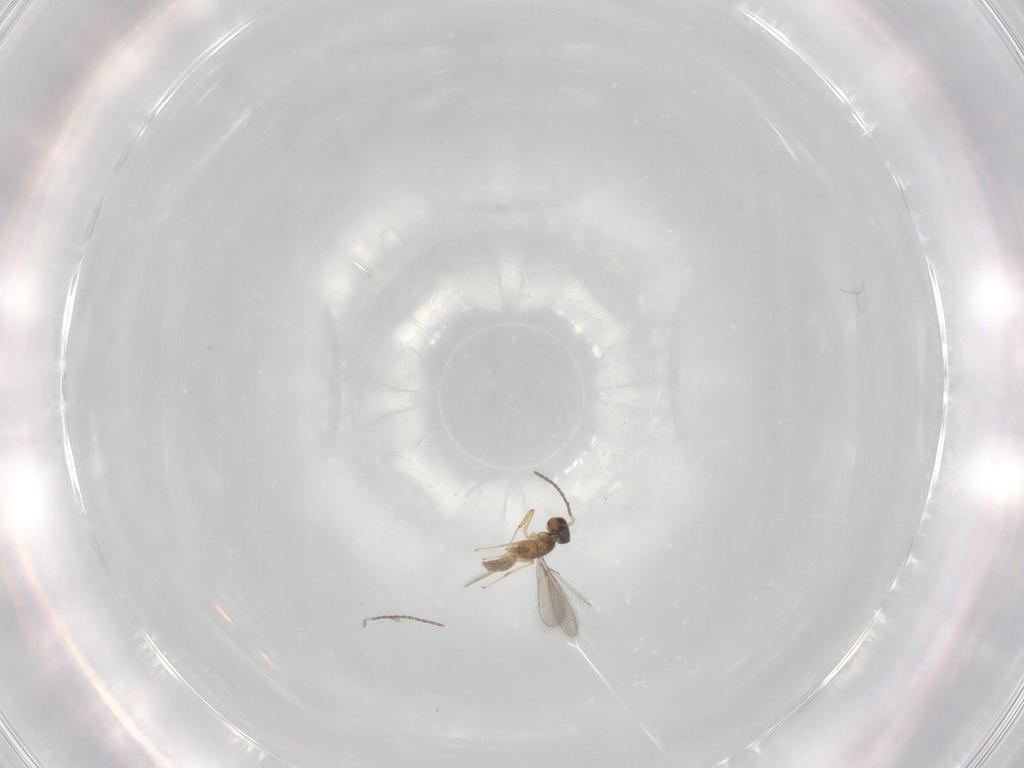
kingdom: Animalia
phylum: Arthropoda
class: Insecta
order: Hymenoptera
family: Mymaridae
